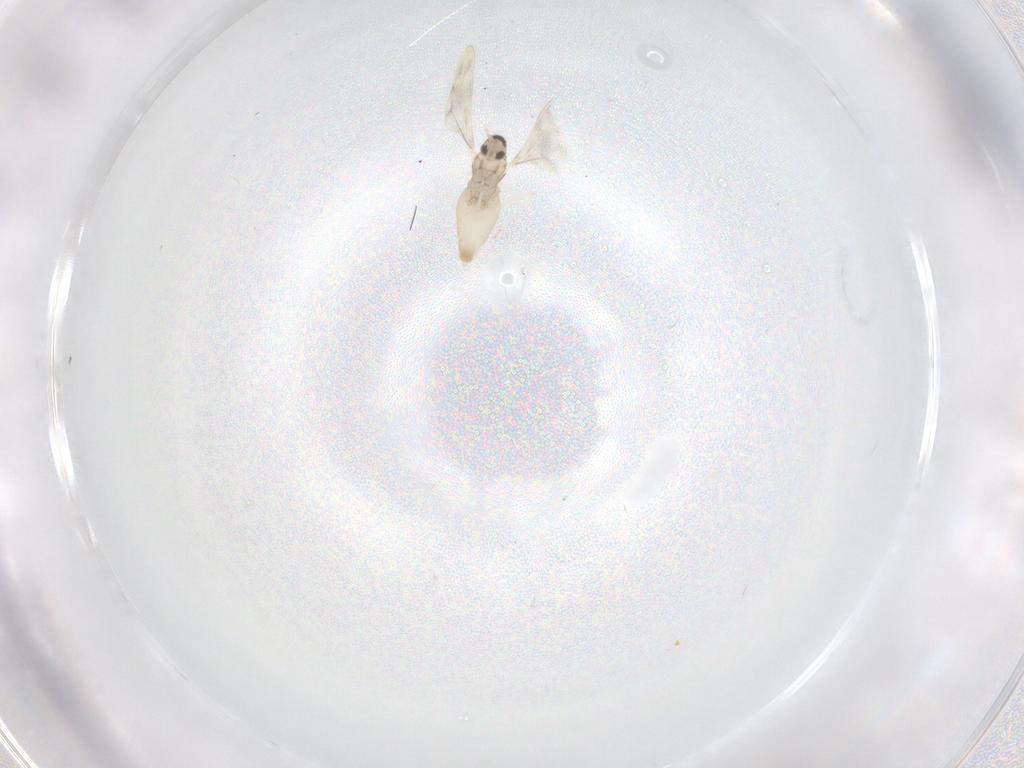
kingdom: Animalia
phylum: Arthropoda
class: Insecta
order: Diptera
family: Cecidomyiidae
